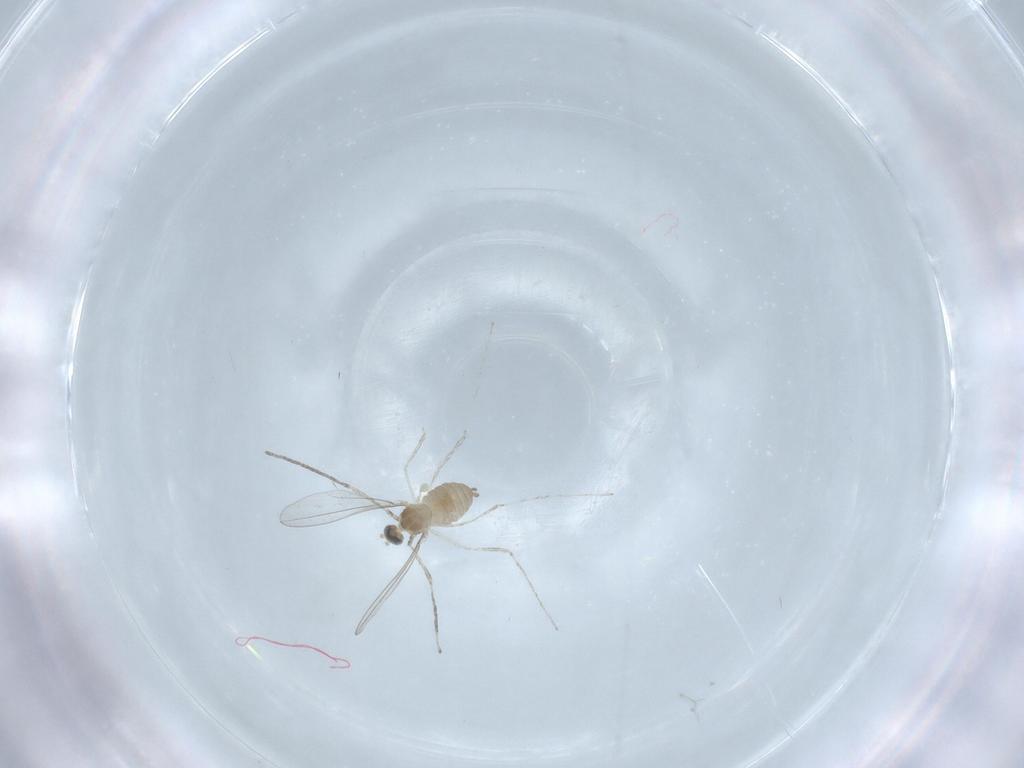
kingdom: Animalia
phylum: Arthropoda
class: Insecta
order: Diptera
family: Cecidomyiidae
